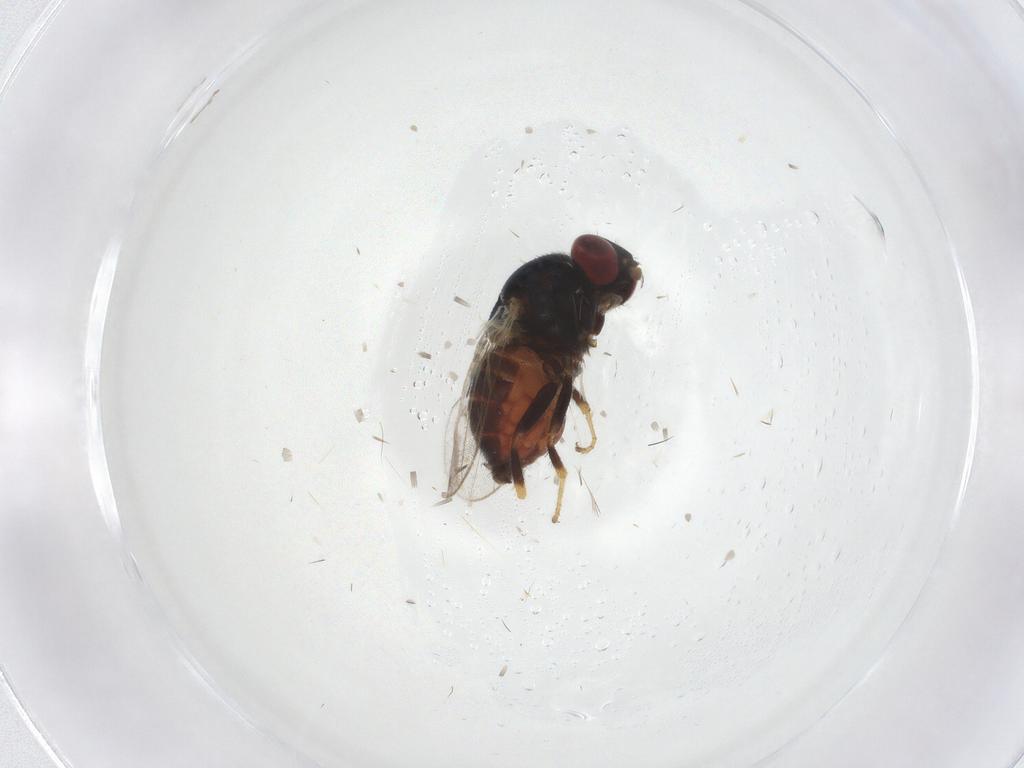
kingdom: Animalia
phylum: Arthropoda
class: Insecta
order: Diptera
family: Chloropidae
